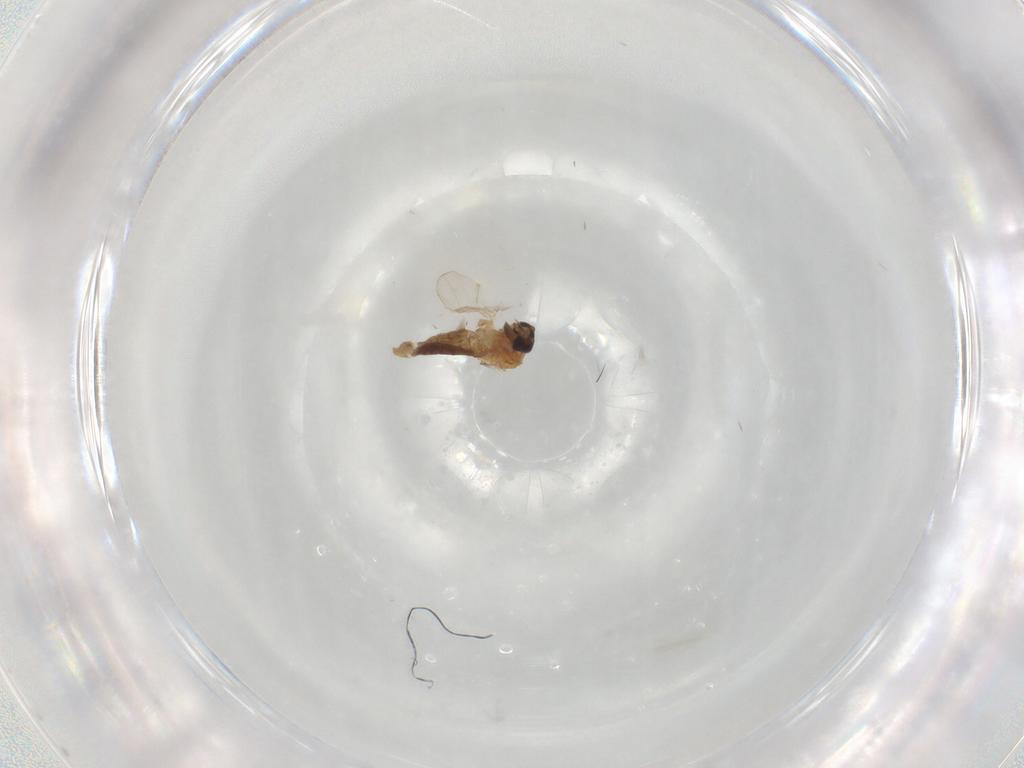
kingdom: Animalia
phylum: Arthropoda
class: Insecta
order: Diptera
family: Ceratopogonidae
